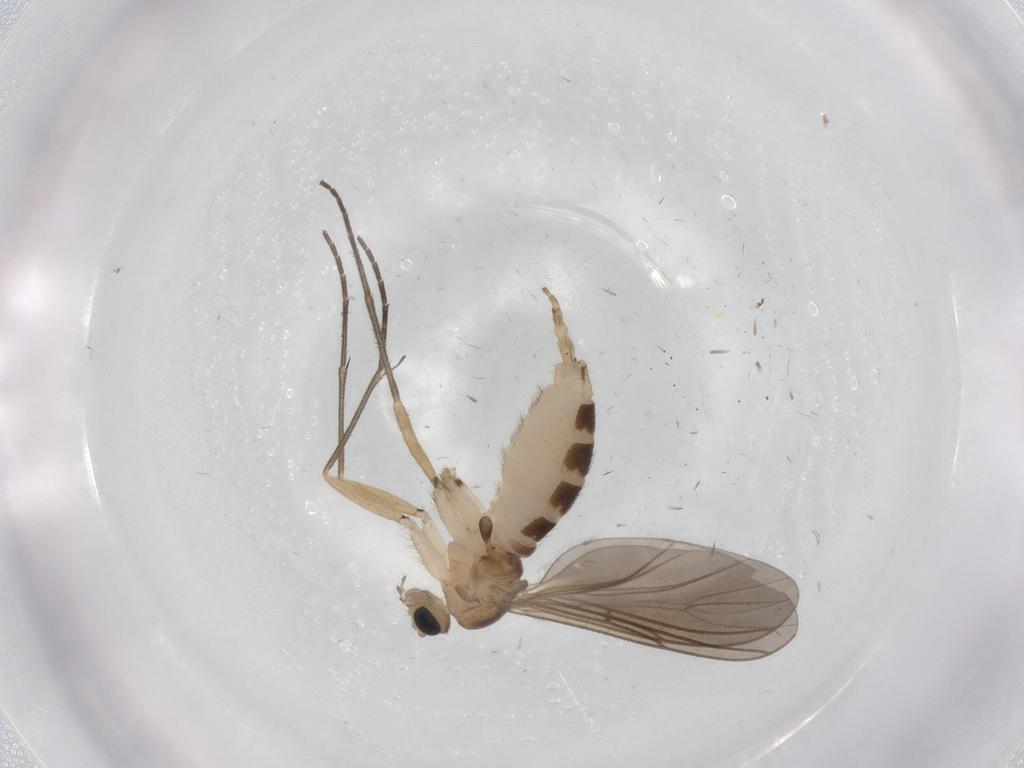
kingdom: Animalia
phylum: Arthropoda
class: Insecta
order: Diptera
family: Sciaridae
